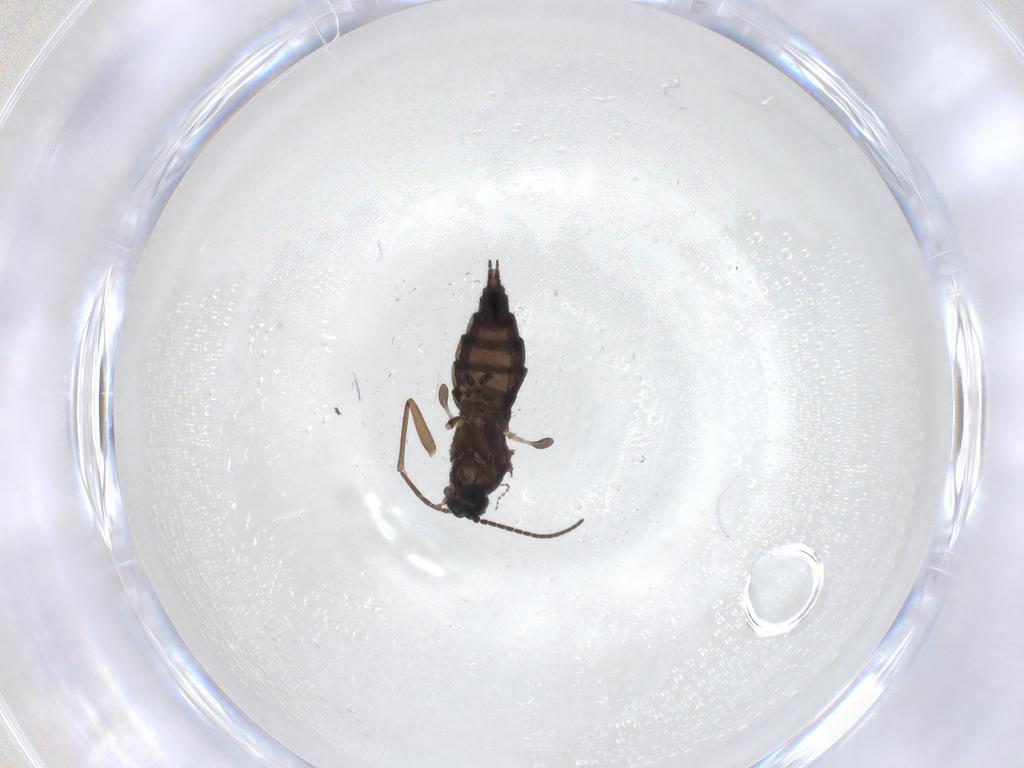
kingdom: Animalia
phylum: Arthropoda
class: Insecta
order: Diptera
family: Sciaridae
